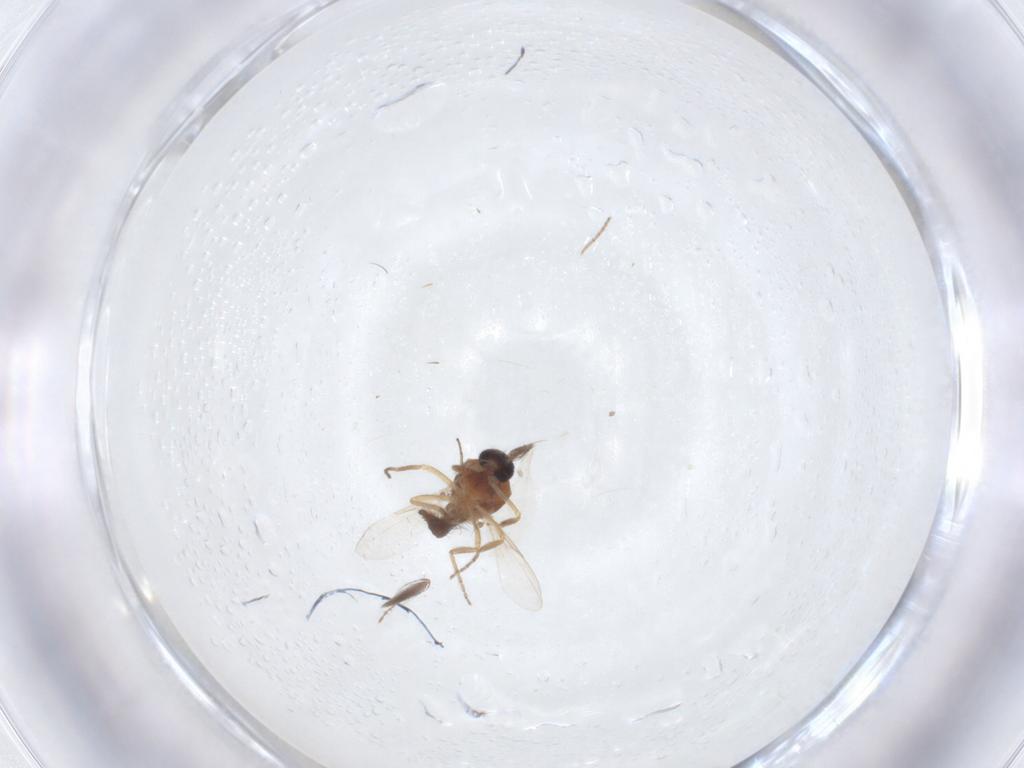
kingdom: Animalia
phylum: Arthropoda
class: Insecta
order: Diptera
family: Ceratopogonidae
